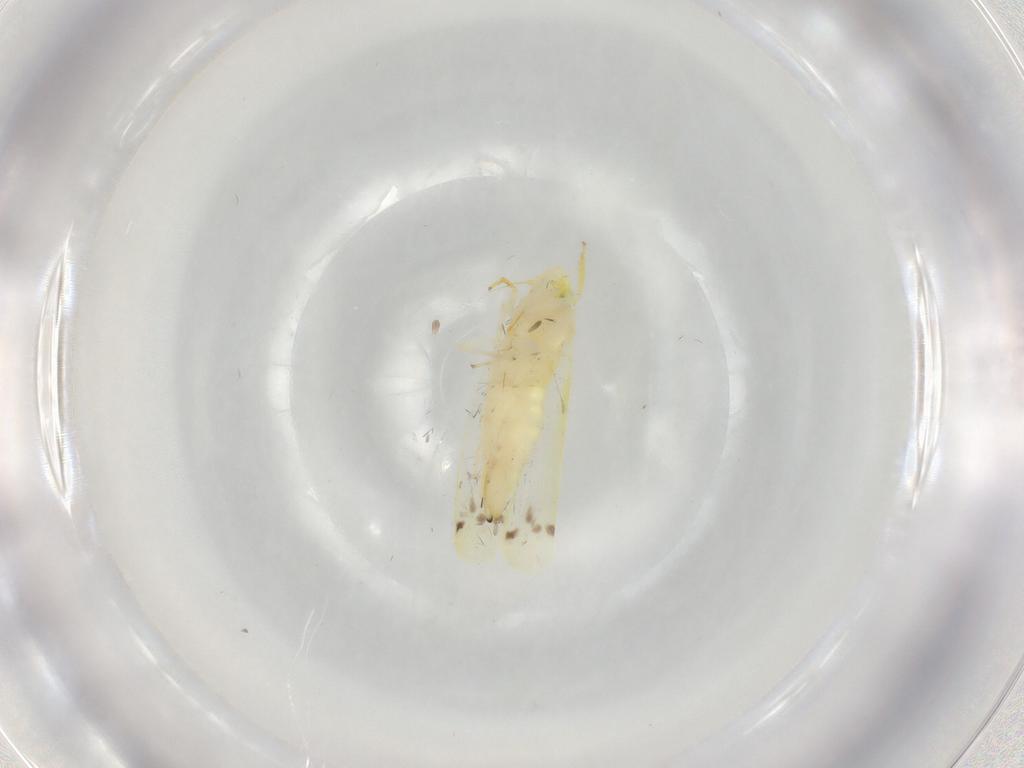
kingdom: Animalia
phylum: Arthropoda
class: Insecta
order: Hemiptera
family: Cicadellidae
